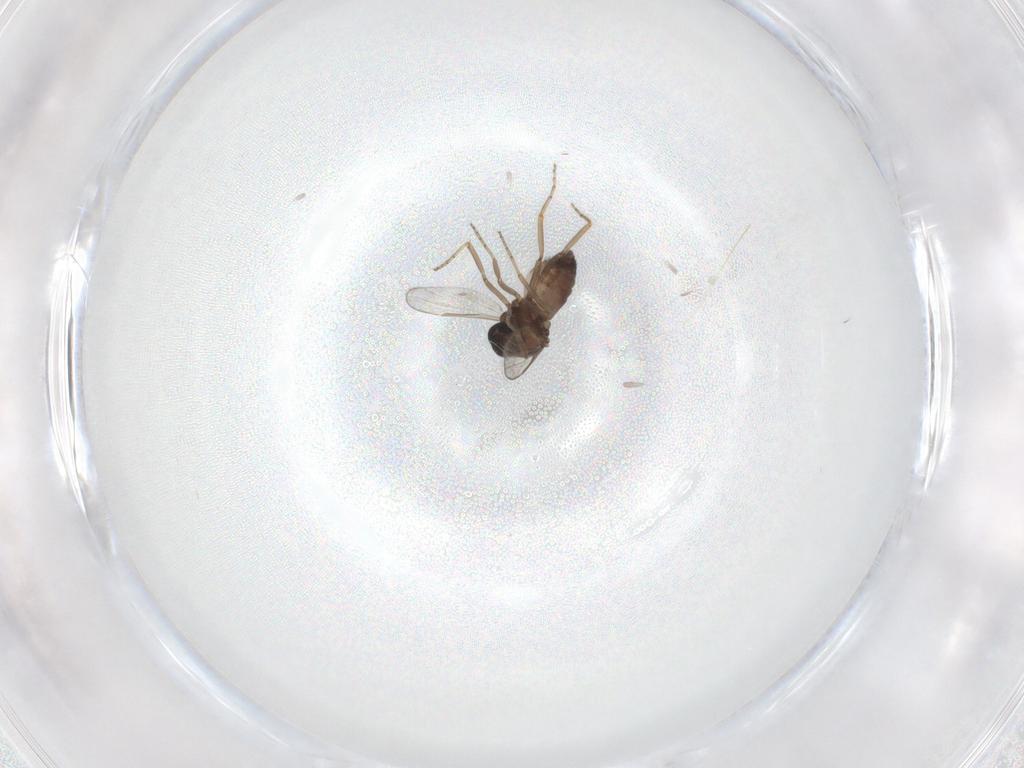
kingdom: Animalia
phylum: Arthropoda
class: Insecta
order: Diptera
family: Ceratopogonidae
